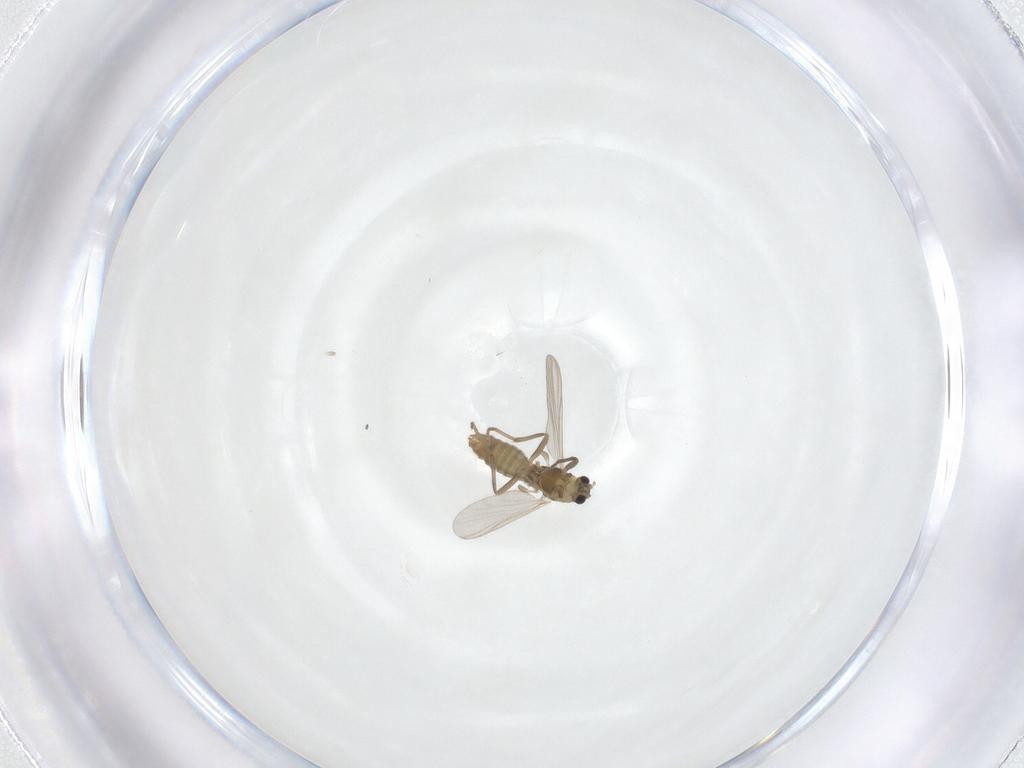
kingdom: Animalia
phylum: Arthropoda
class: Insecta
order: Diptera
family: Chironomidae
